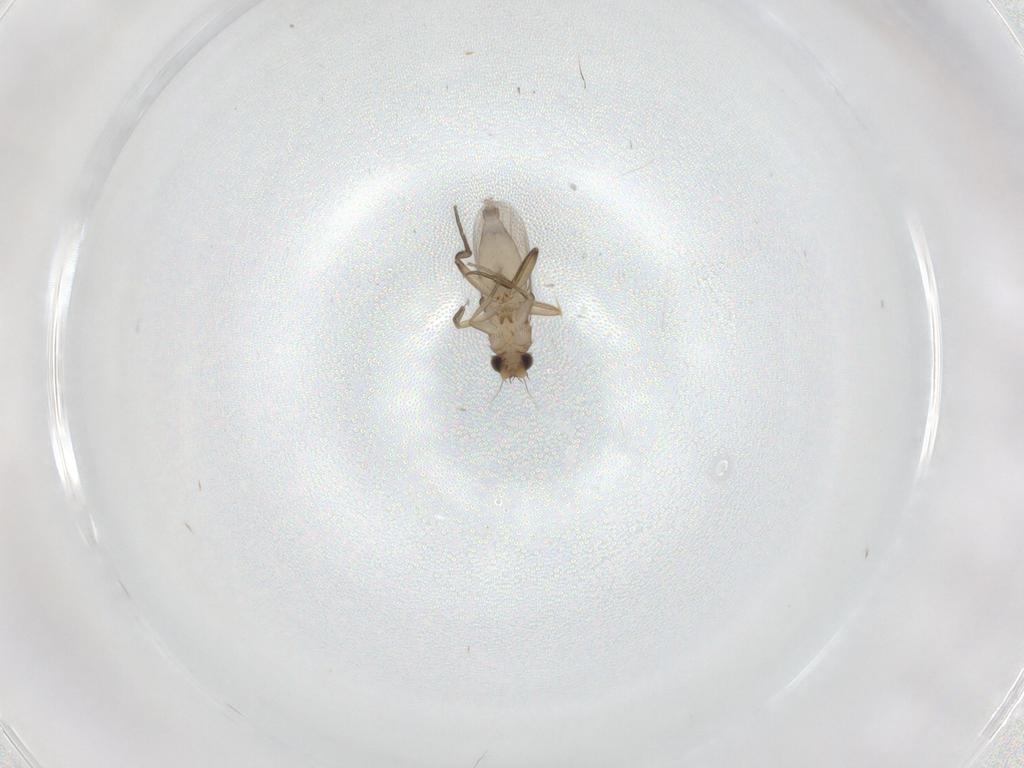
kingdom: Animalia
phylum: Arthropoda
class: Insecta
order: Diptera
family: Phoridae
